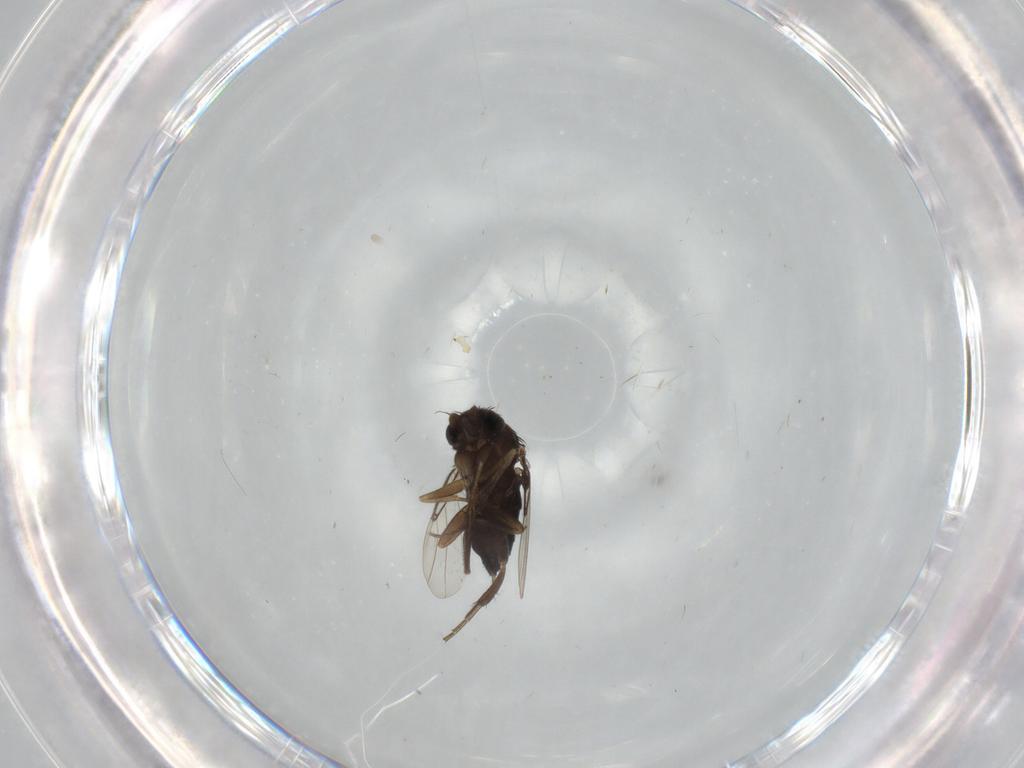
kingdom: Animalia
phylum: Arthropoda
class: Insecta
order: Diptera
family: Phoridae
